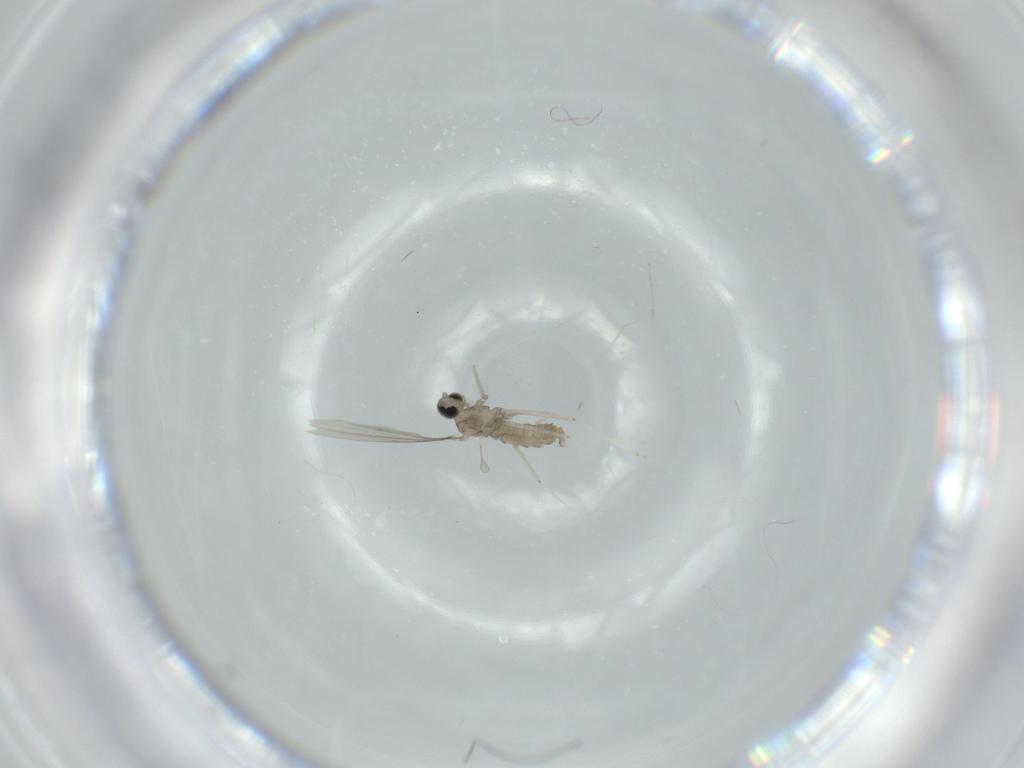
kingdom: Animalia
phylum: Arthropoda
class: Insecta
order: Diptera
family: Cecidomyiidae
